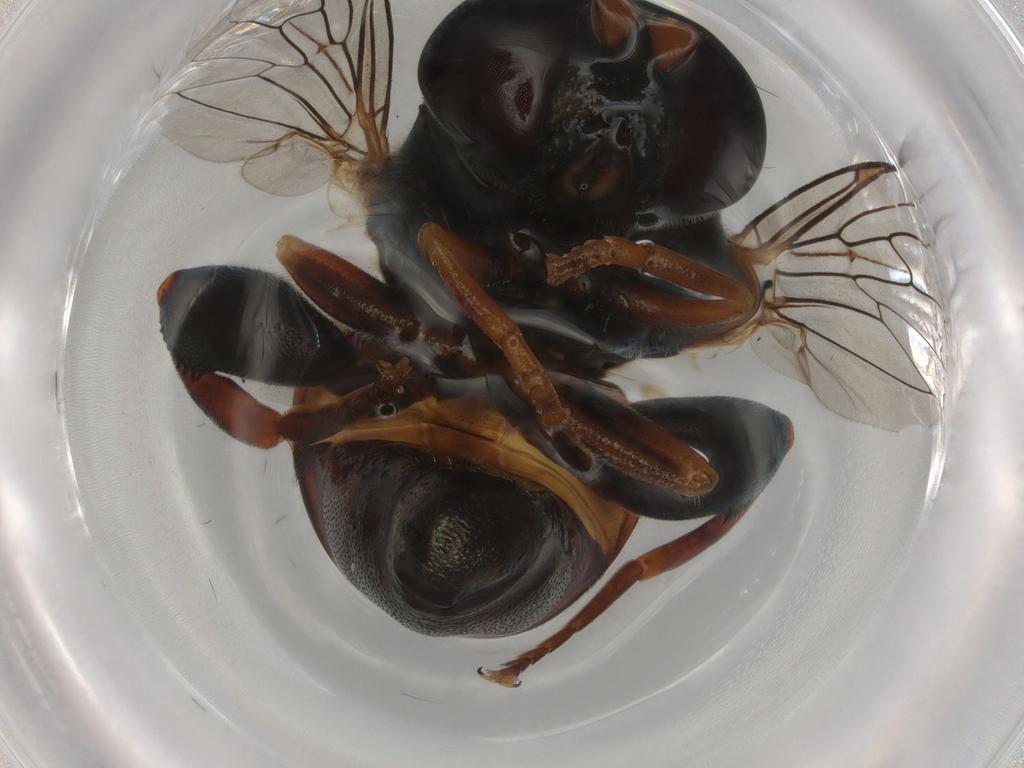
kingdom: Animalia
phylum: Arthropoda
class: Insecta
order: Diptera
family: Syrphidae
